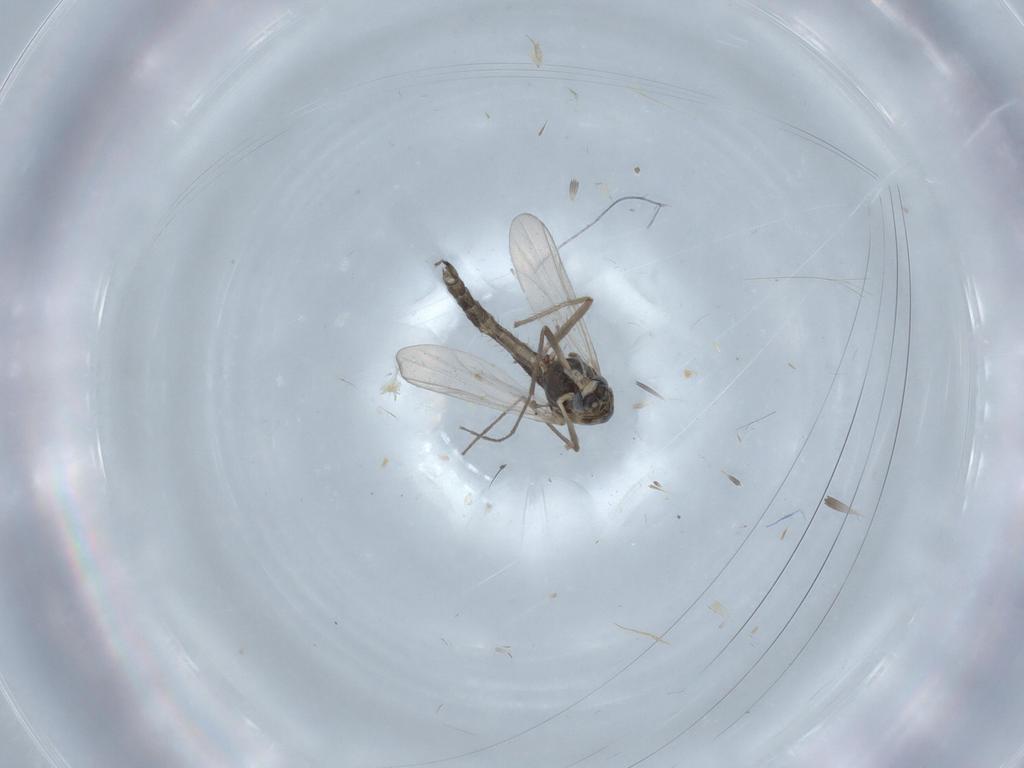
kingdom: Animalia
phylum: Arthropoda
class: Insecta
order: Diptera
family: Chironomidae
